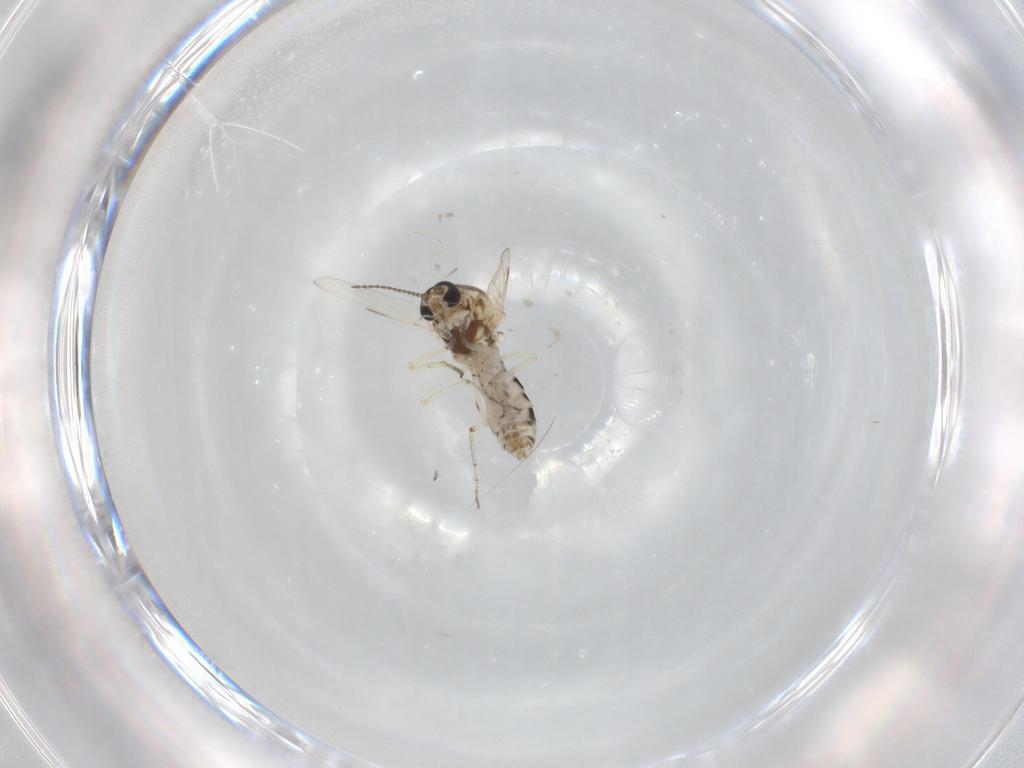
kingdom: Animalia
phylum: Arthropoda
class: Insecta
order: Diptera
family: Ceratopogonidae
